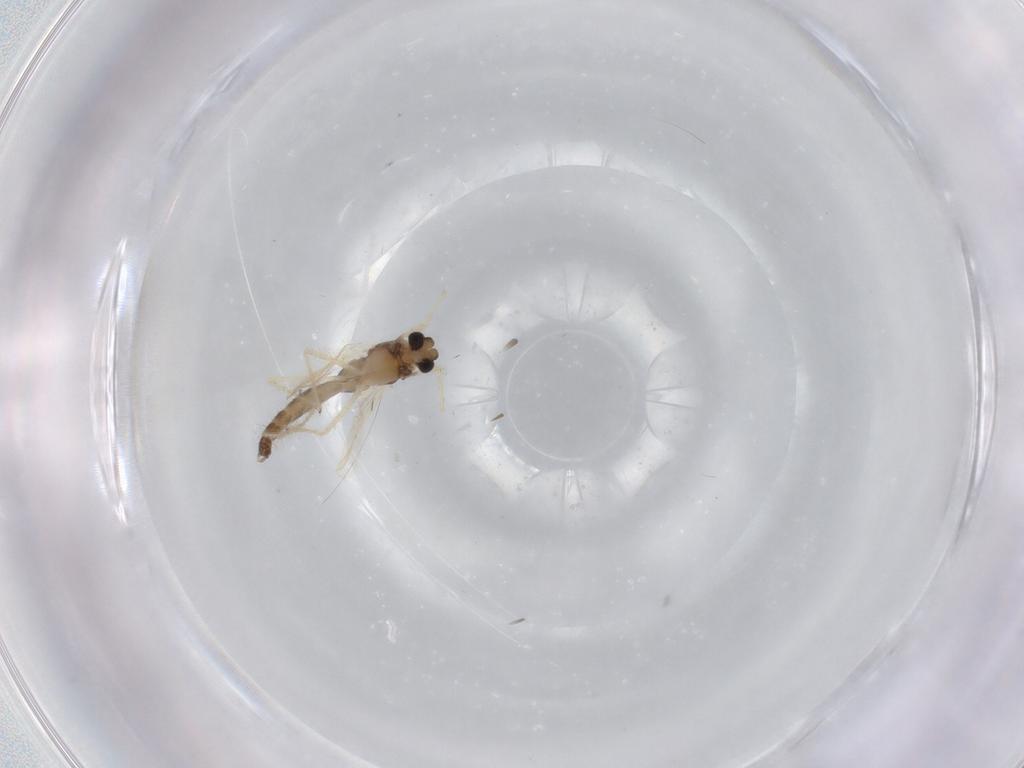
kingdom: Animalia
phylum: Arthropoda
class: Insecta
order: Diptera
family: Chironomidae
